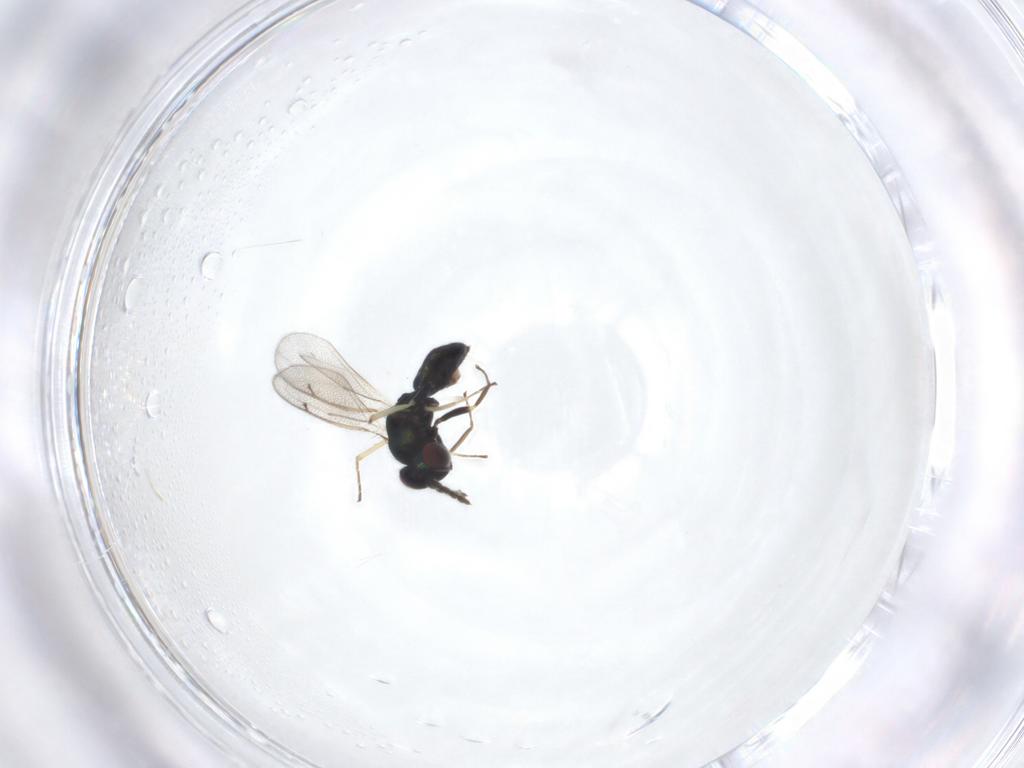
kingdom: Animalia
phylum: Arthropoda
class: Insecta
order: Hymenoptera
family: Eulophidae
